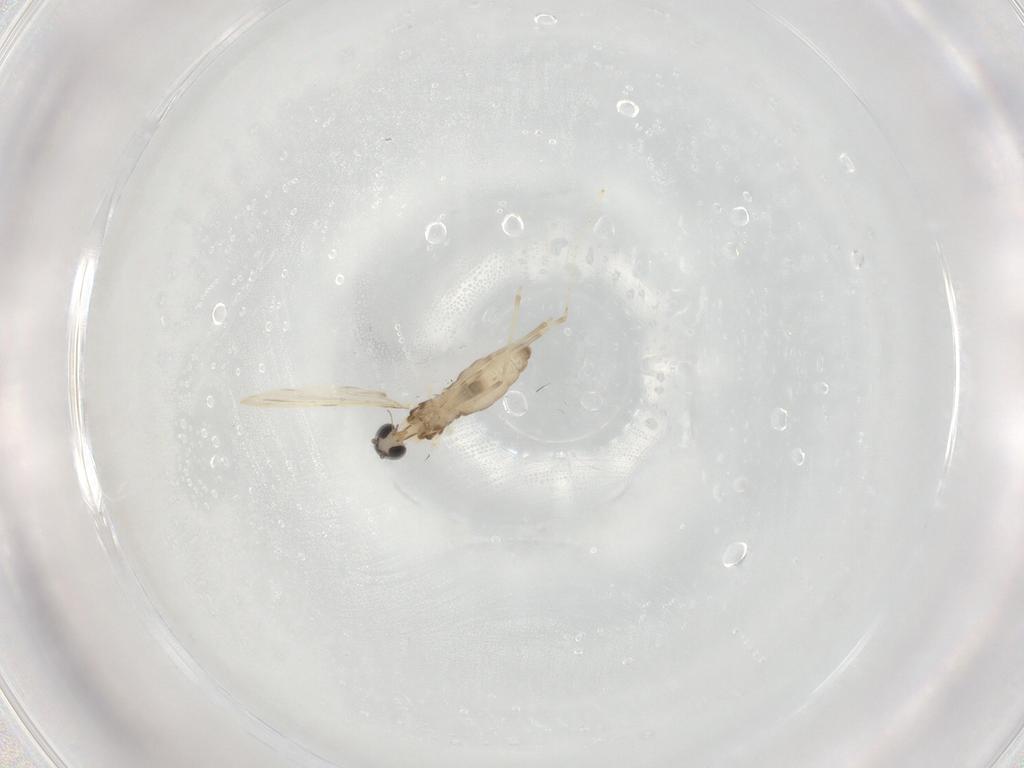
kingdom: Animalia
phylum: Arthropoda
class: Insecta
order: Diptera
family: Cecidomyiidae
